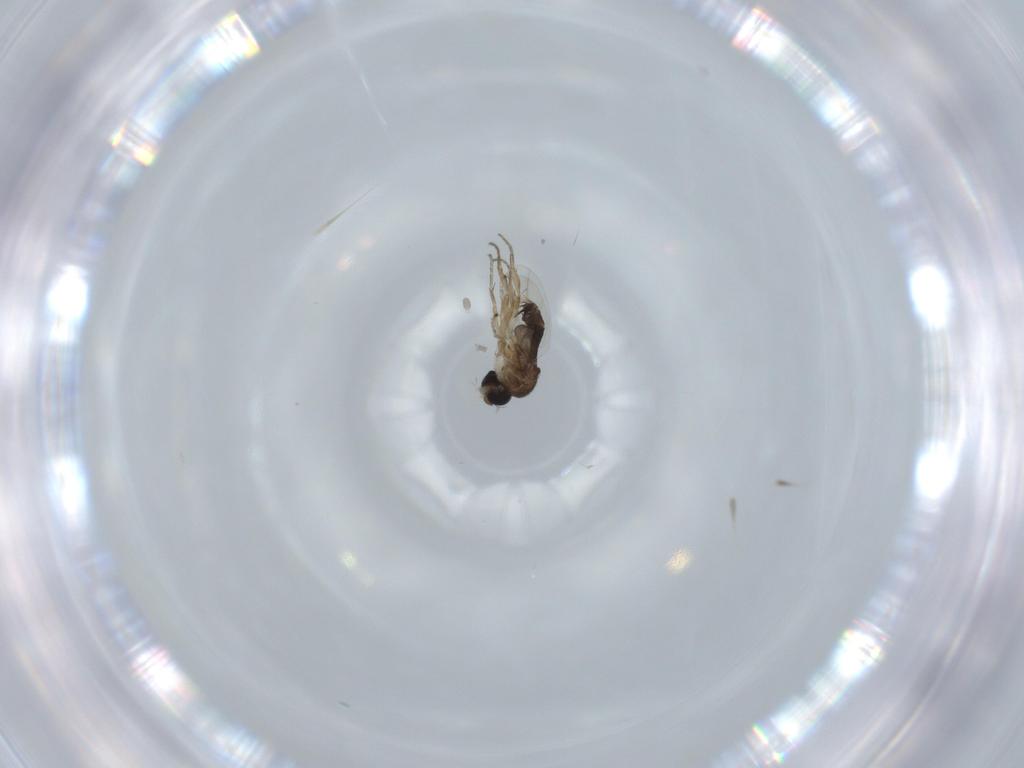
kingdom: Animalia
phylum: Arthropoda
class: Insecta
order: Diptera
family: Phoridae
